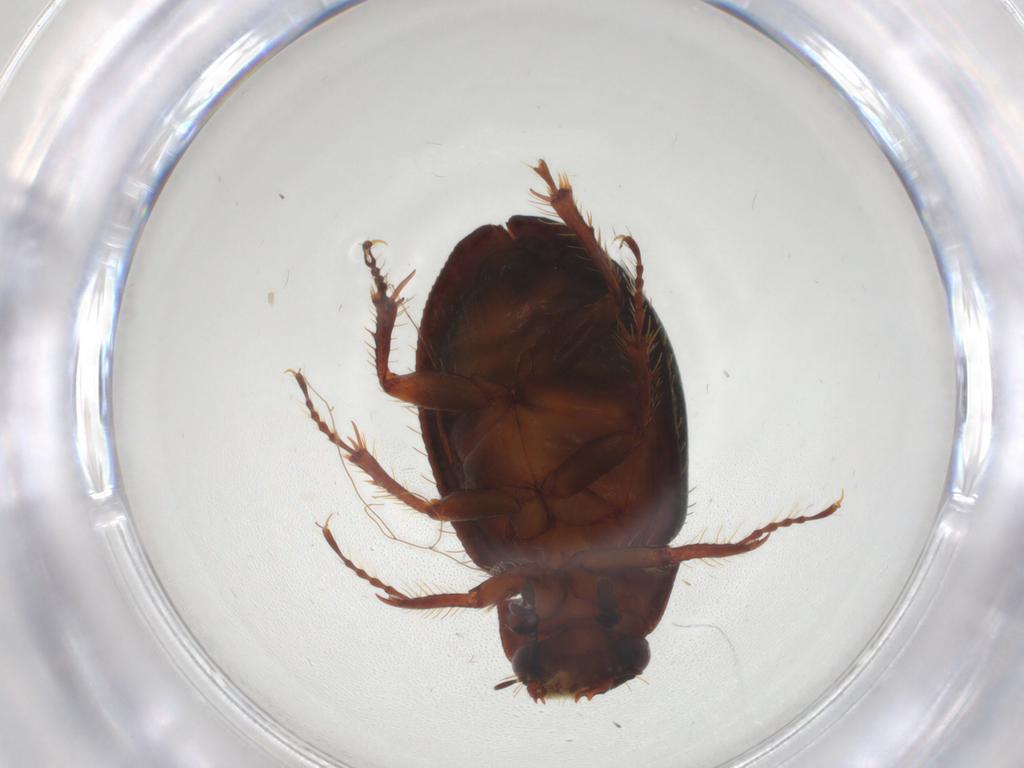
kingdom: Animalia
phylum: Arthropoda
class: Insecta
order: Coleoptera
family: Hybosoridae
